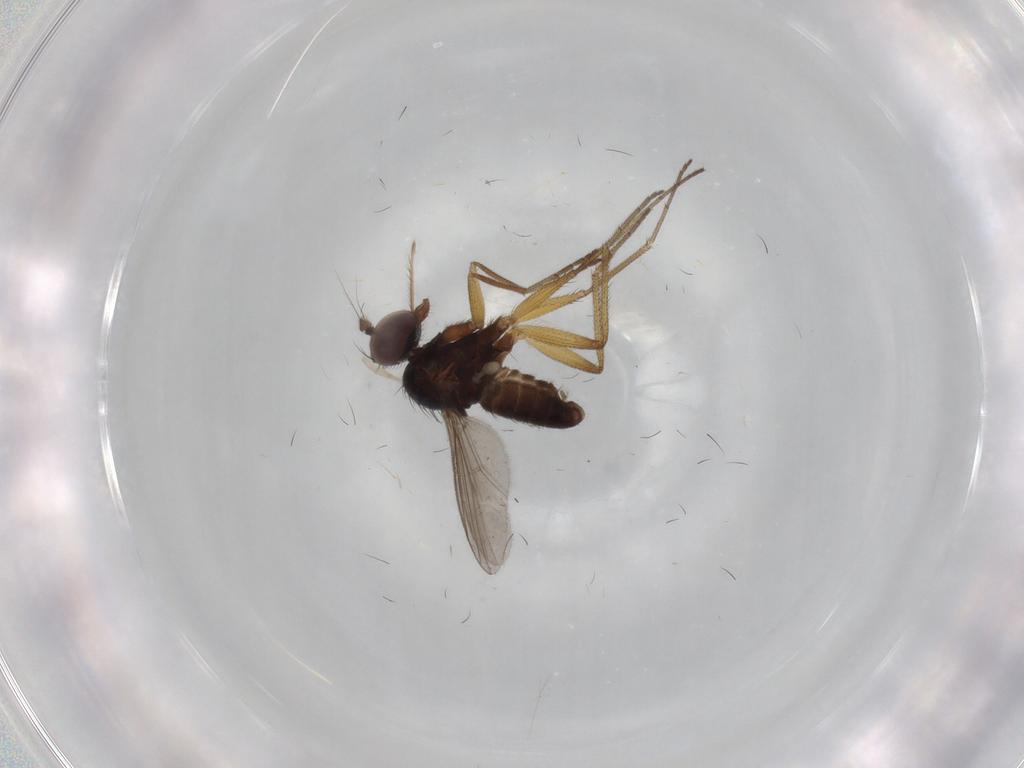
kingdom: Animalia
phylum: Arthropoda
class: Insecta
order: Diptera
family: Dolichopodidae
